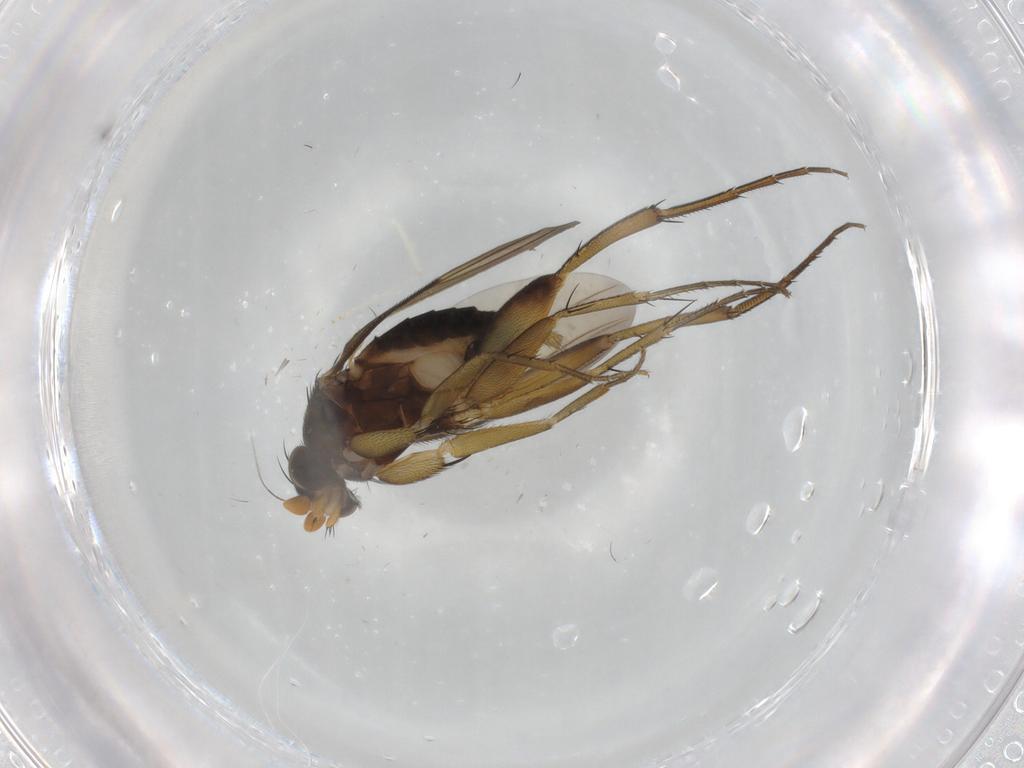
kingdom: Animalia
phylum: Arthropoda
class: Insecta
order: Diptera
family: Phoridae
